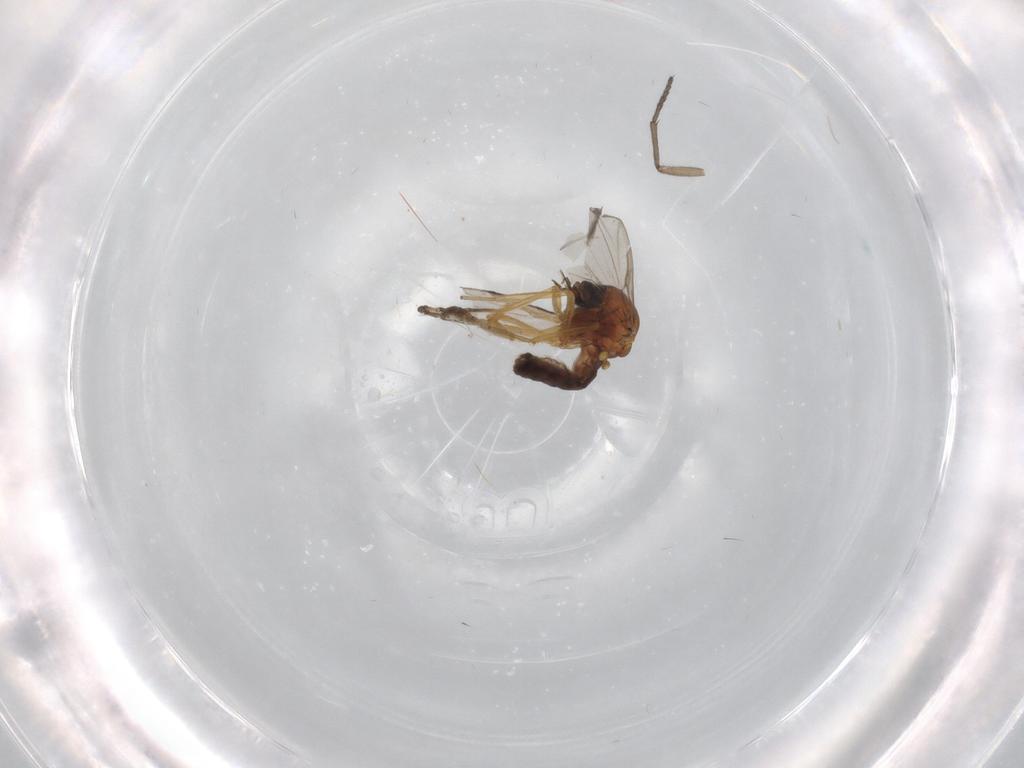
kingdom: Animalia
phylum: Arthropoda
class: Insecta
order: Diptera
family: Ceratopogonidae
